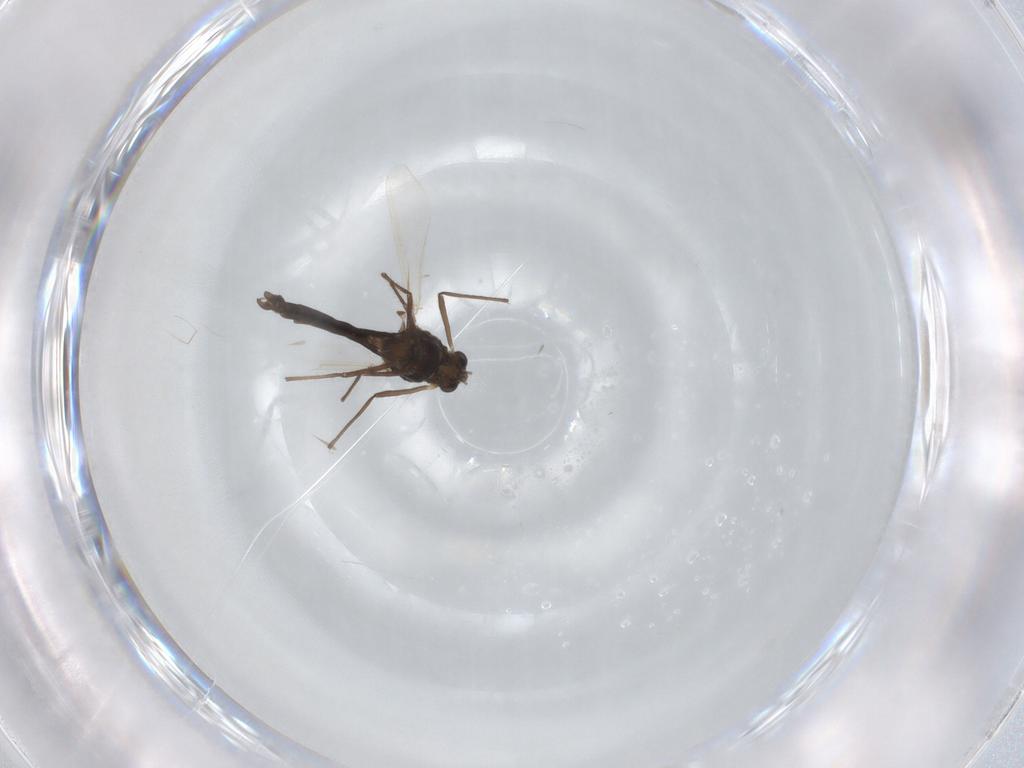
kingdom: Animalia
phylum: Arthropoda
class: Insecta
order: Diptera
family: Chironomidae
